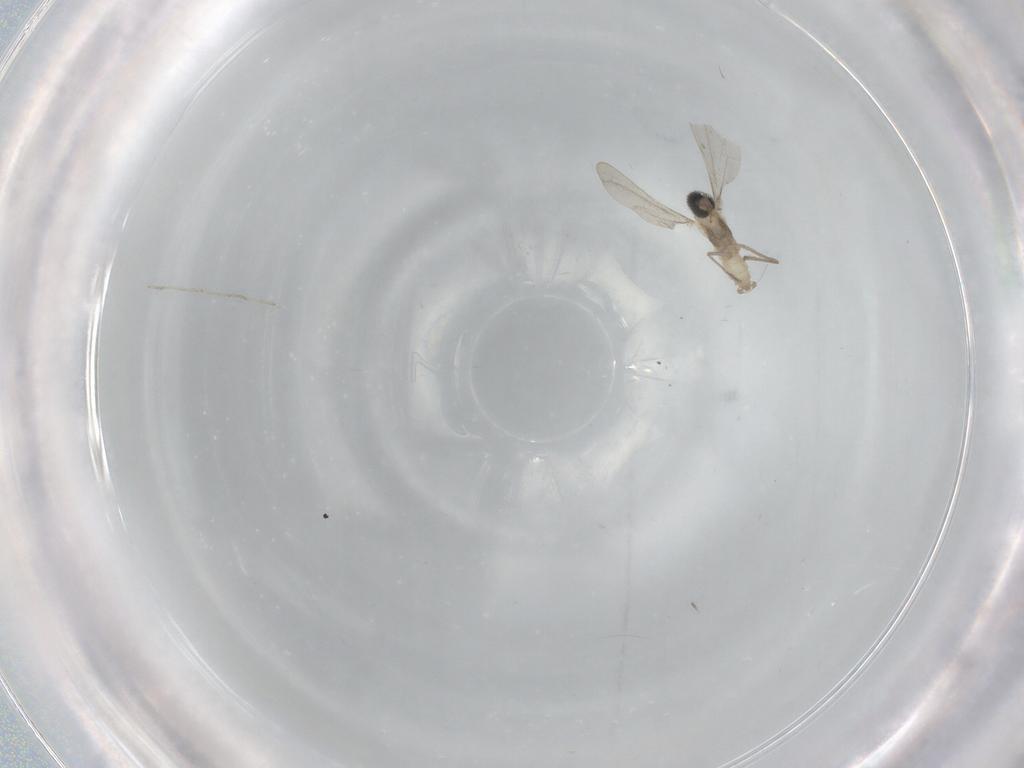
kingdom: Animalia
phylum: Arthropoda
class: Insecta
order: Diptera
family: Cecidomyiidae
